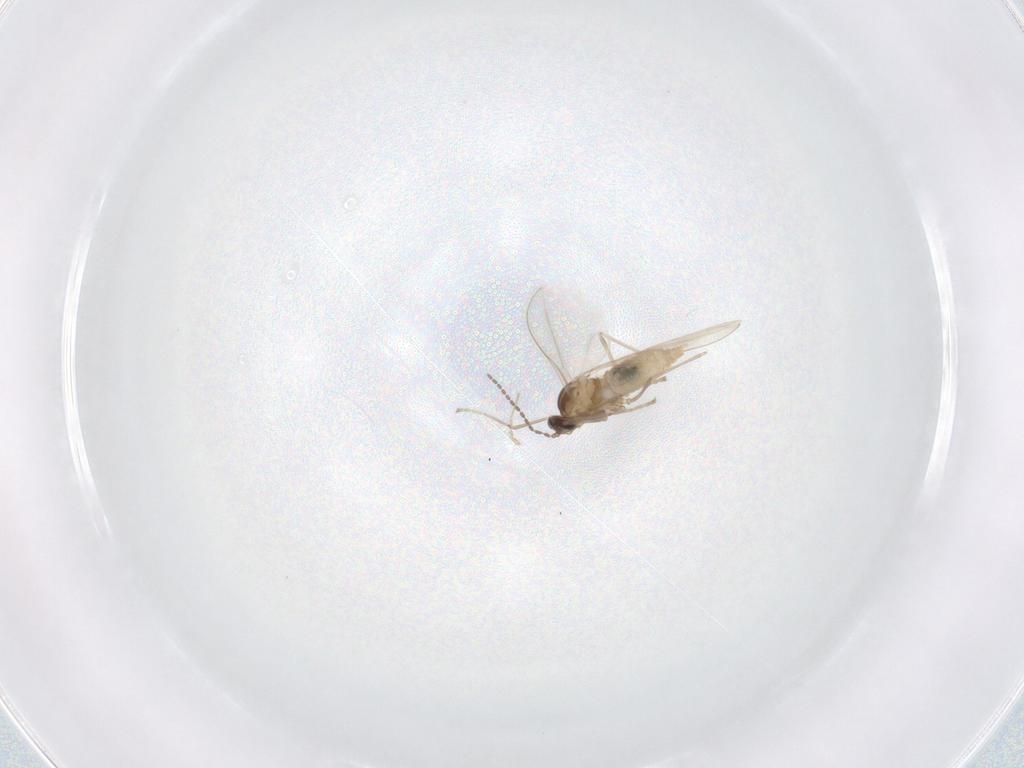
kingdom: Animalia
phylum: Arthropoda
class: Insecta
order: Diptera
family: Cecidomyiidae
